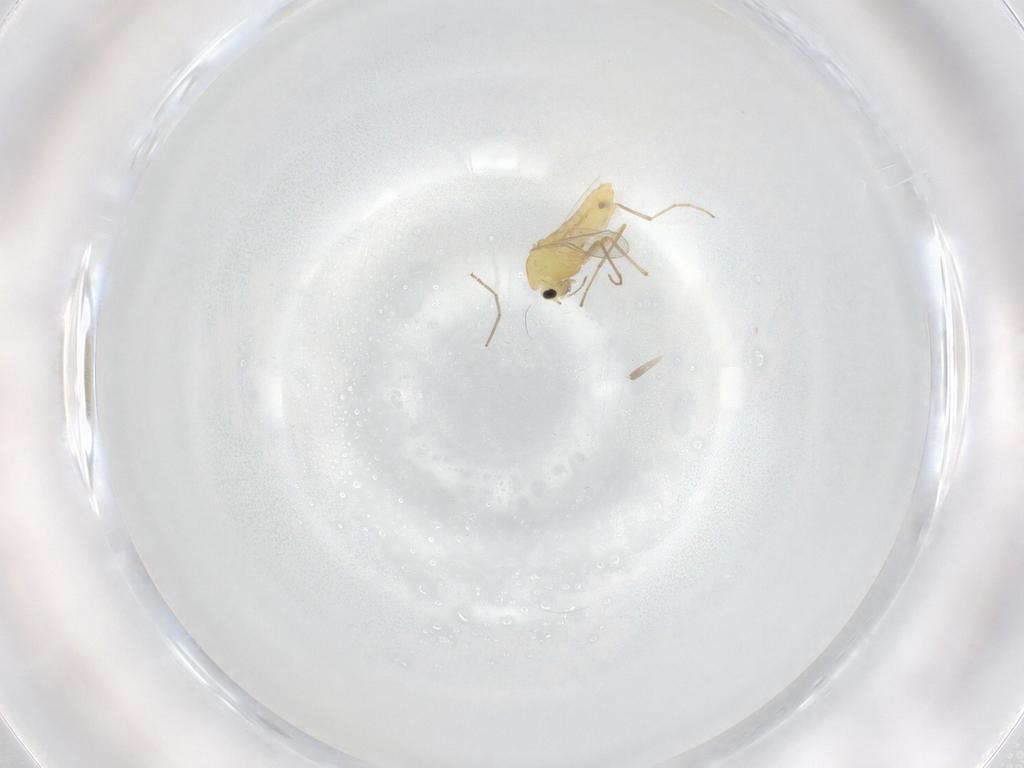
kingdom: Animalia
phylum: Arthropoda
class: Insecta
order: Diptera
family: Chironomidae
